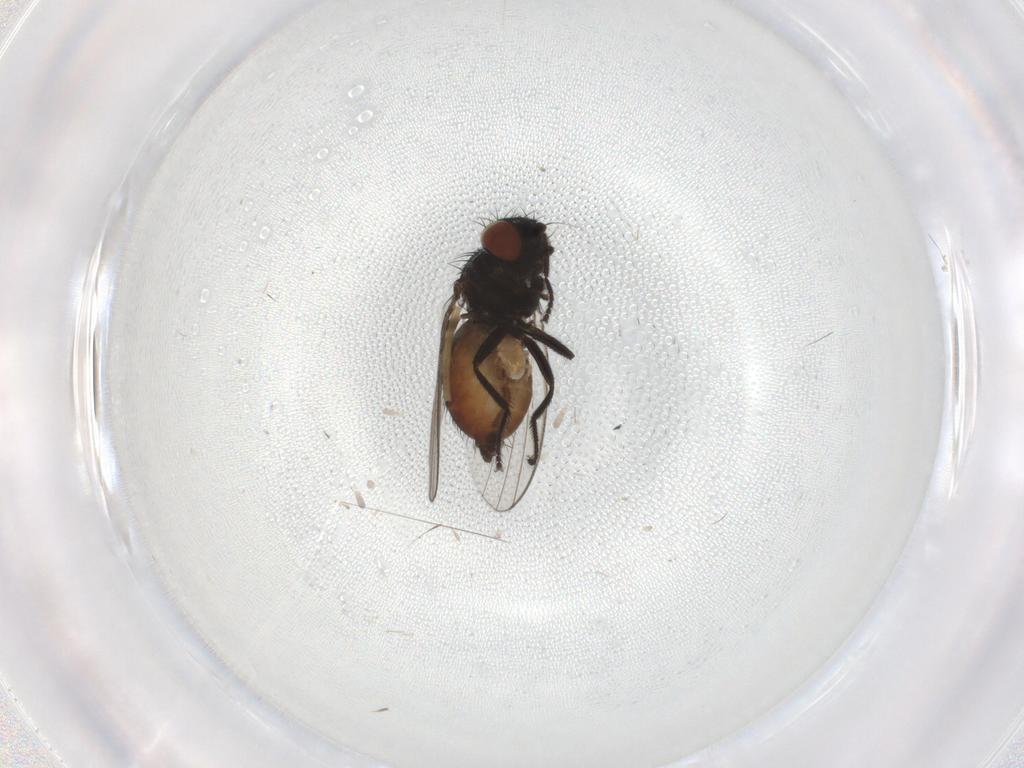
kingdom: Animalia
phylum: Arthropoda
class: Insecta
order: Diptera
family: Milichiidae
